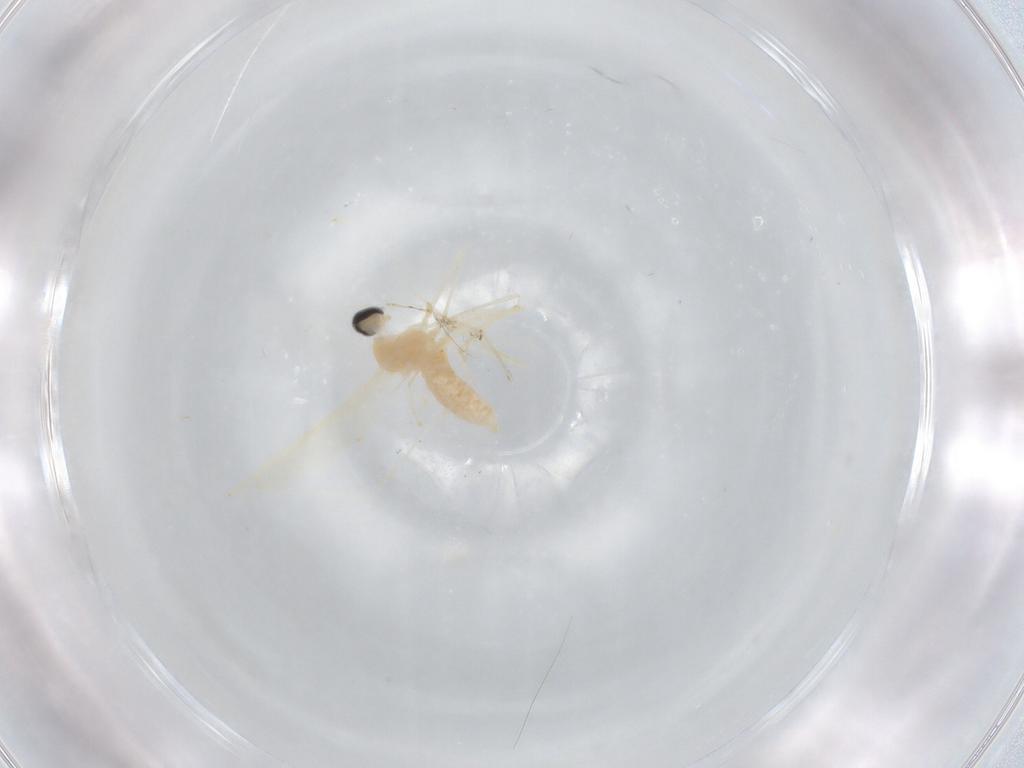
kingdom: Animalia
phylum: Arthropoda
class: Insecta
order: Diptera
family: Cecidomyiidae
